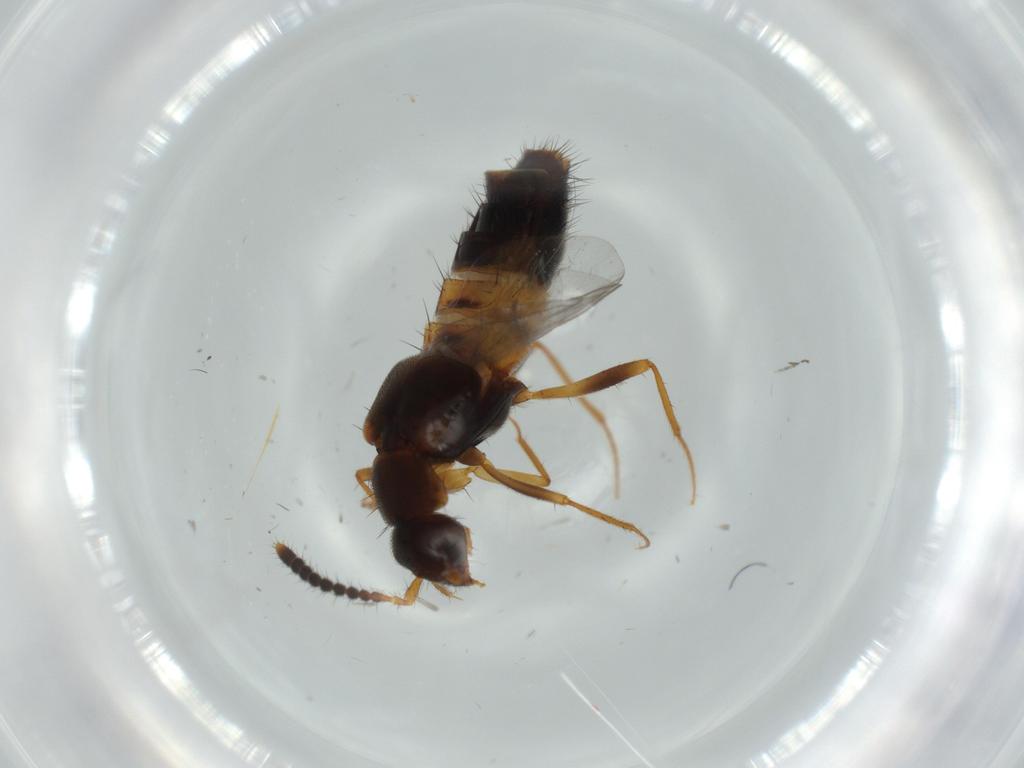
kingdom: Animalia
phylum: Arthropoda
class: Insecta
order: Coleoptera
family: Staphylinidae
